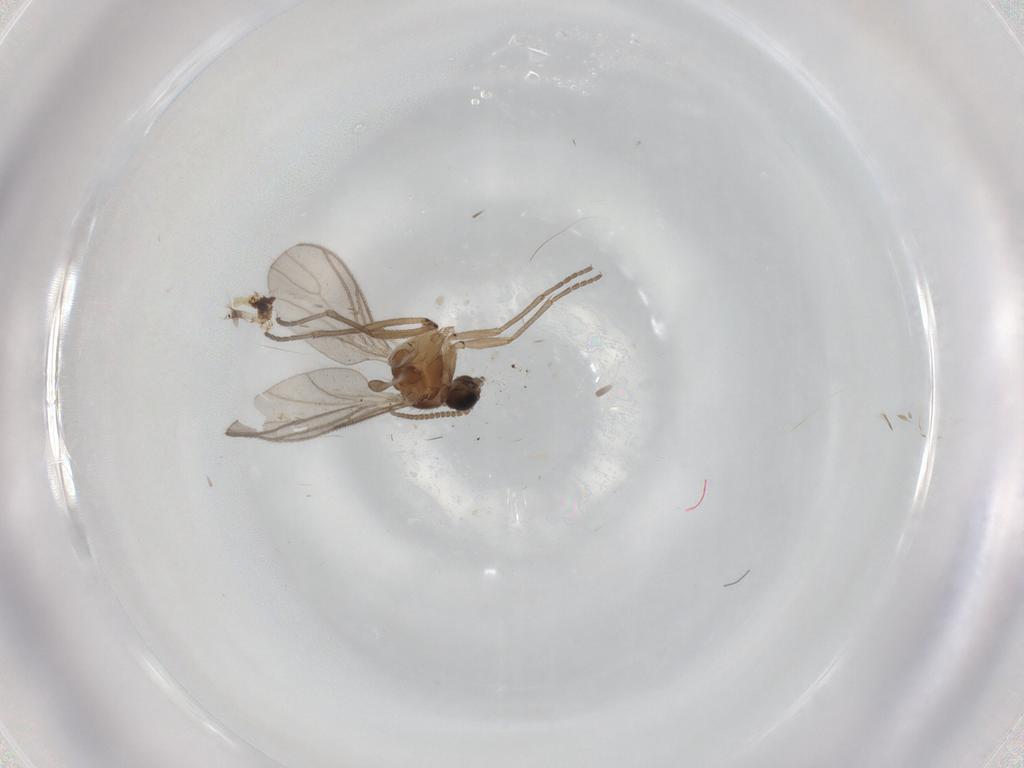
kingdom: Animalia
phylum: Arthropoda
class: Insecta
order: Diptera
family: Sciaridae
